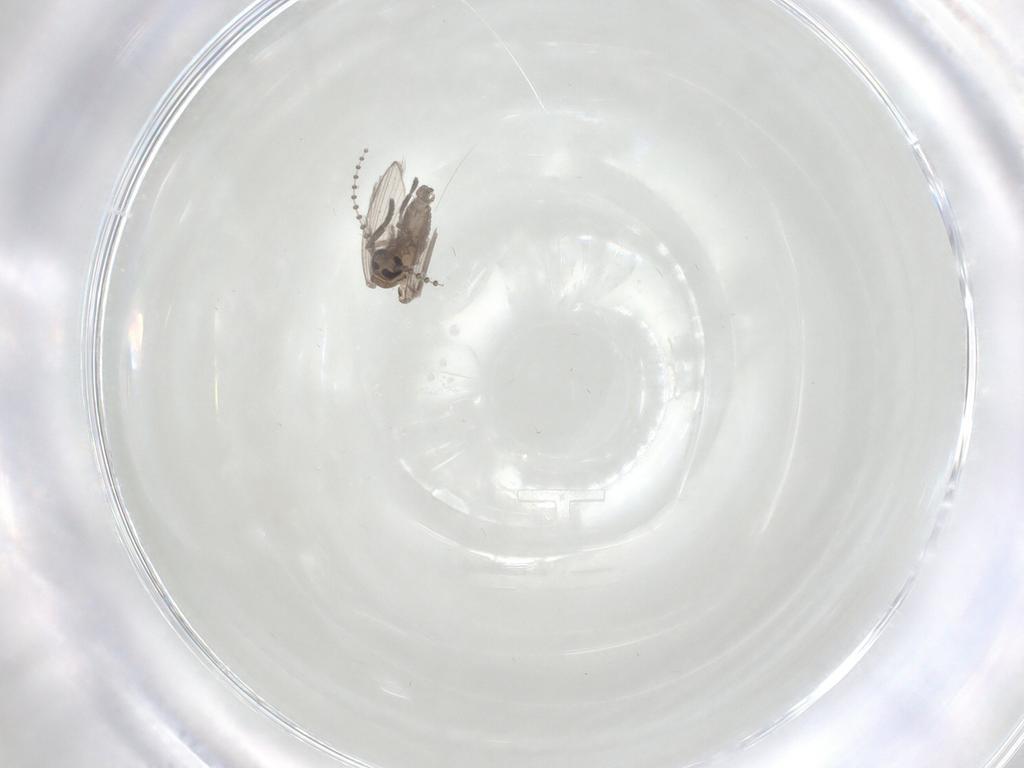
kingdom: Animalia
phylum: Arthropoda
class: Insecta
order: Diptera
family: Psychodidae
